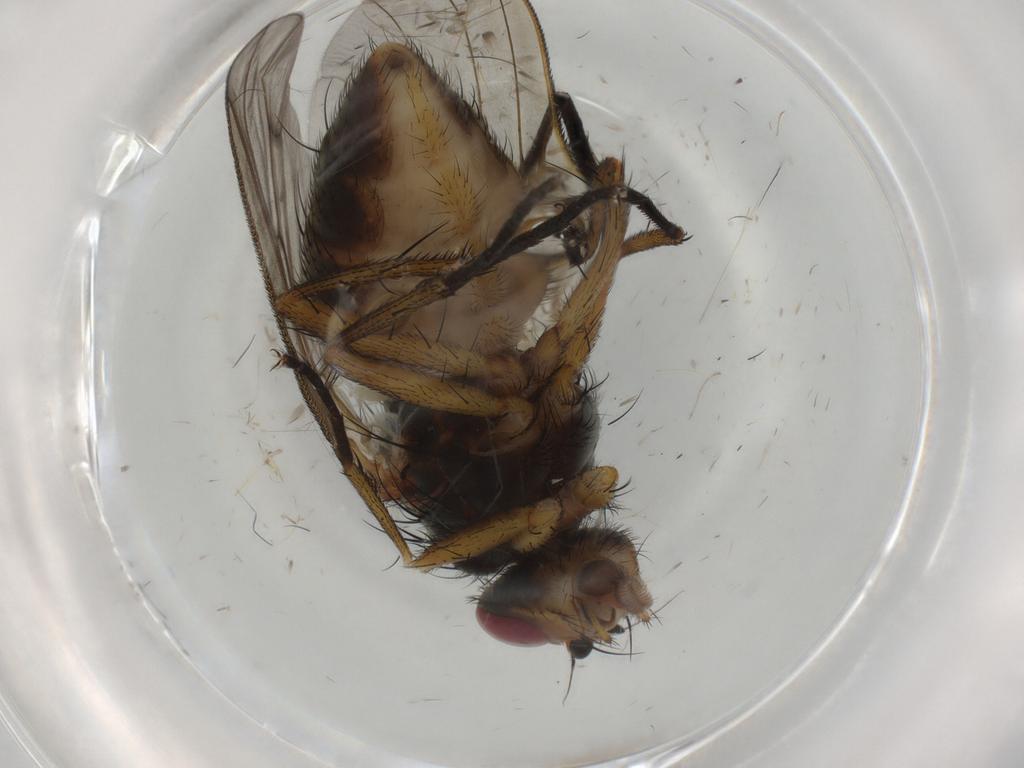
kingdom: Animalia
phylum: Arthropoda
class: Insecta
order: Diptera
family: Anthomyiidae
